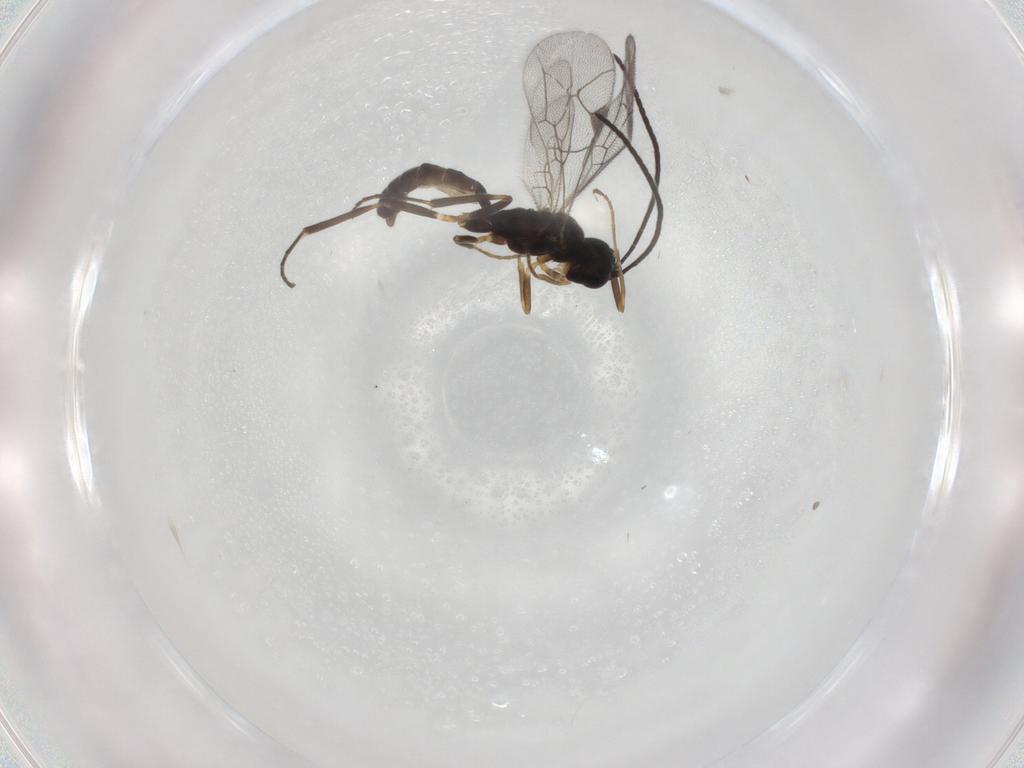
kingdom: Animalia
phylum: Arthropoda
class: Insecta
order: Hymenoptera
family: Ichneumonidae
